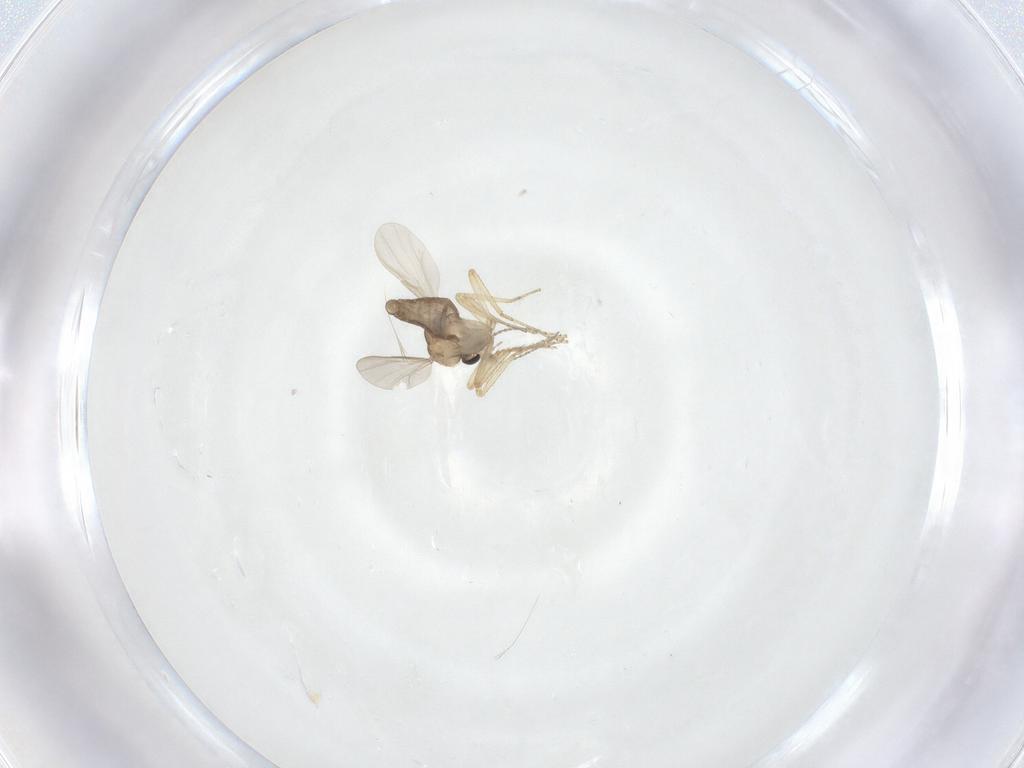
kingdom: Animalia
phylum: Arthropoda
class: Insecta
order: Diptera
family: Ceratopogonidae
